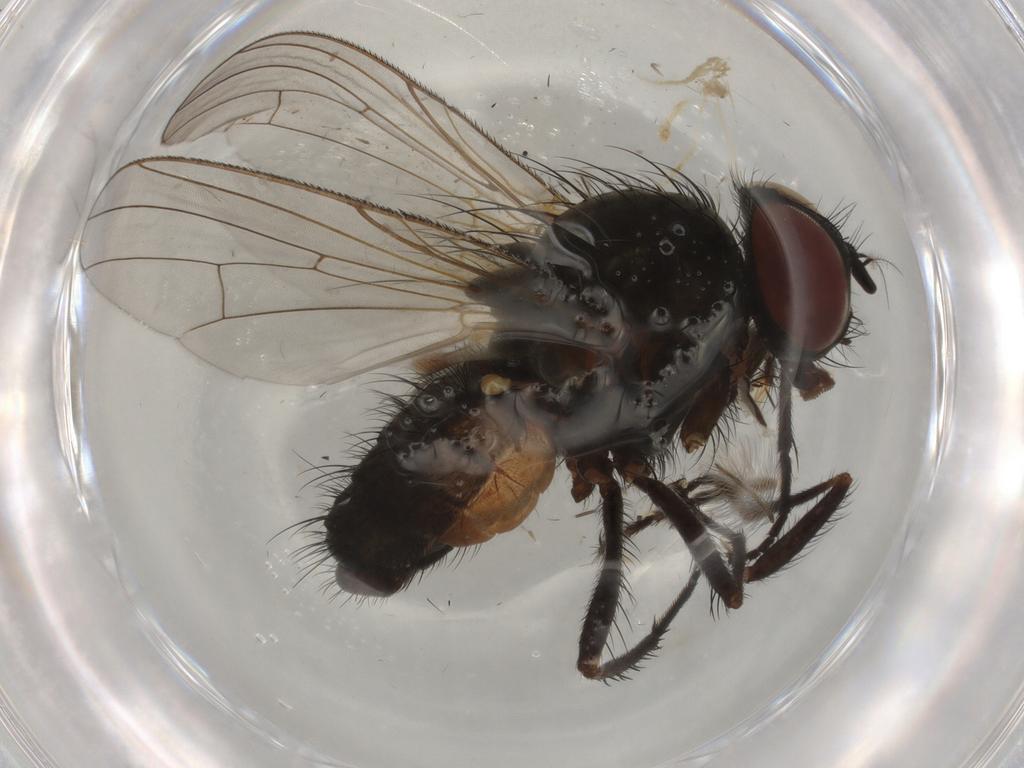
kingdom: Animalia
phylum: Arthropoda
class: Insecta
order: Diptera
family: Anthomyiidae
